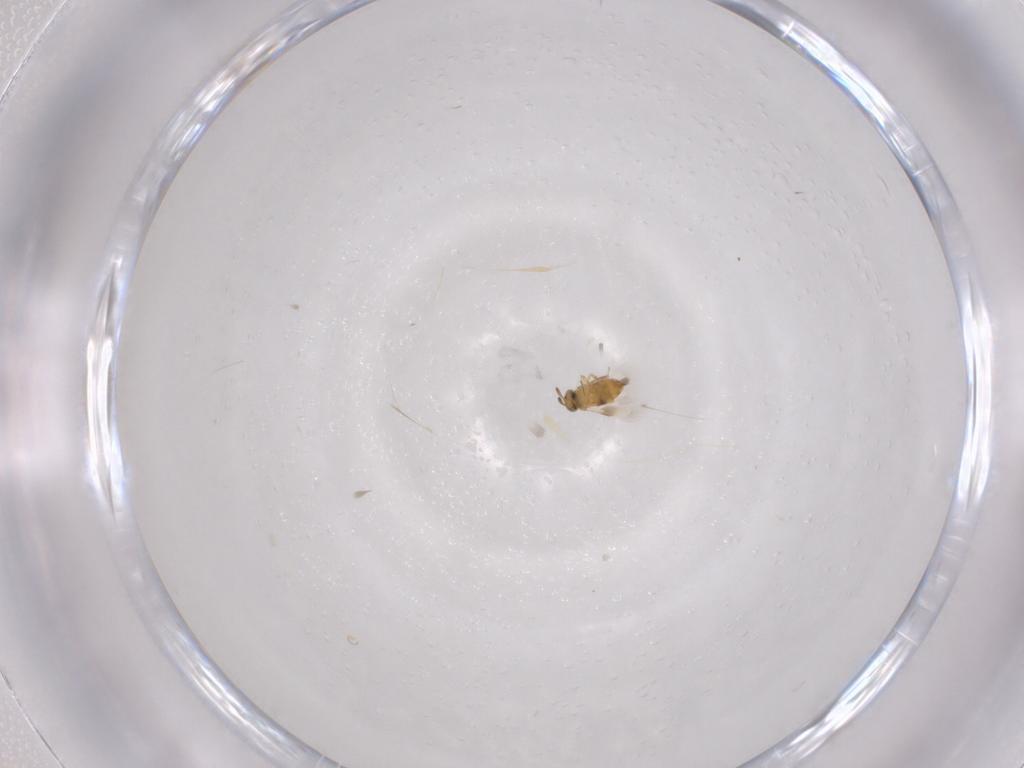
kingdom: Animalia
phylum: Arthropoda
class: Insecta
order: Hymenoptera
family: Signiphoridae
